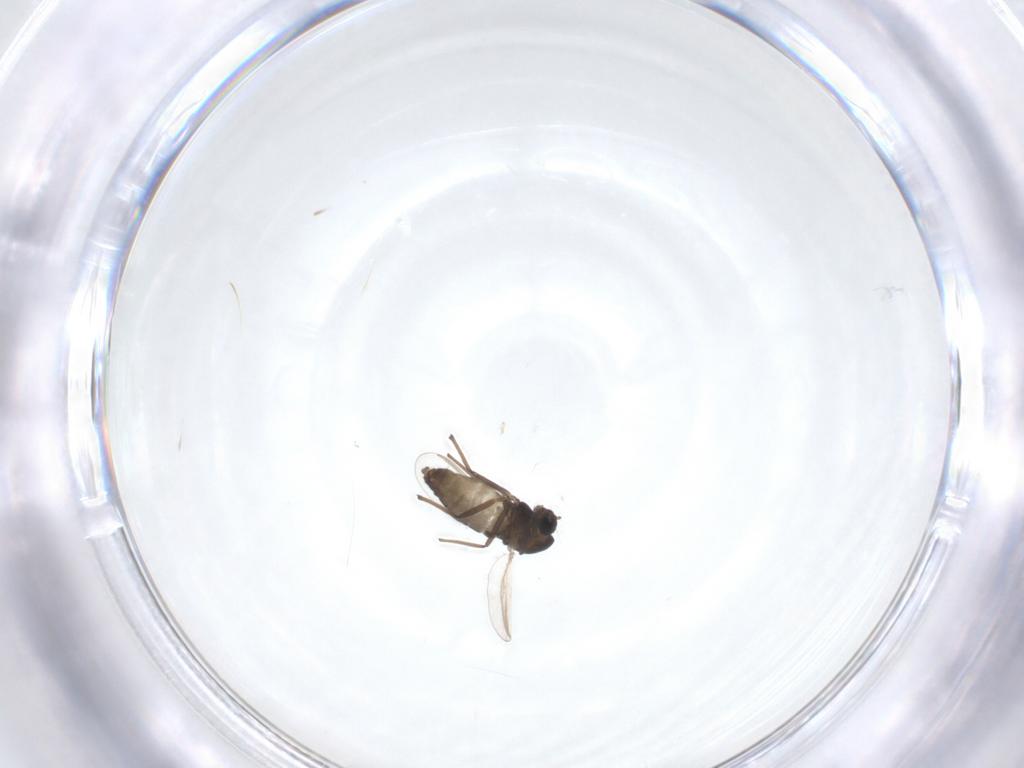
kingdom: Animalia
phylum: Arthropoda
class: Insecta
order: Diptera
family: Chironomidae
